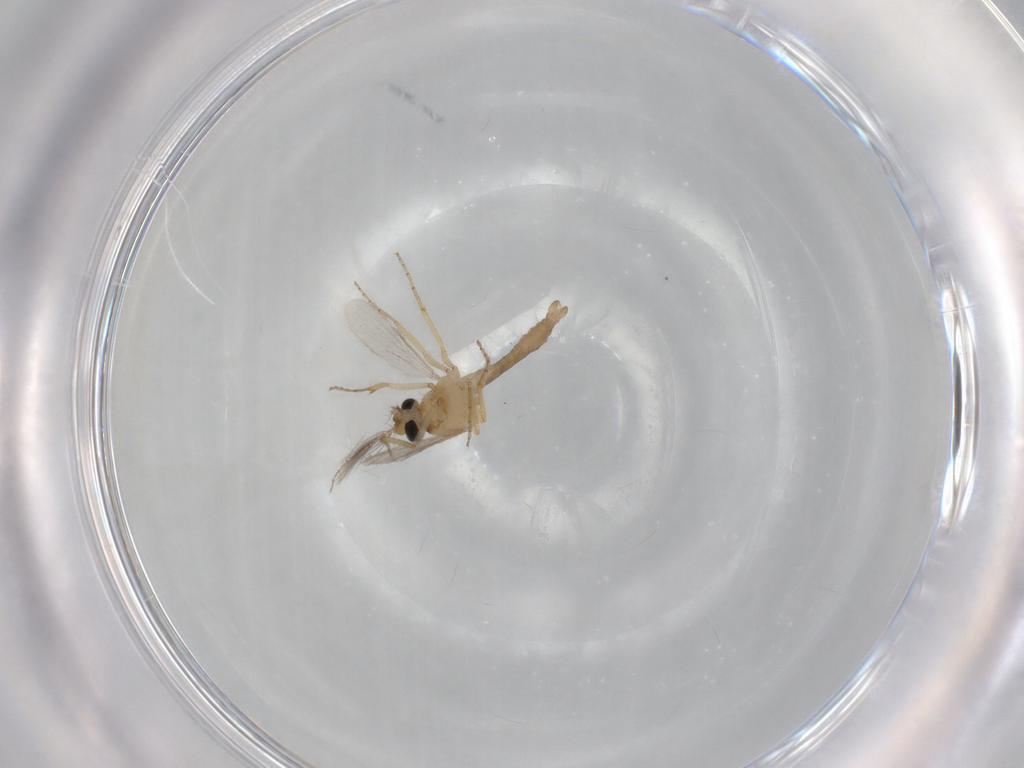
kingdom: Animalia
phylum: Arthropoda
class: Insecta
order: Diptera
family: Ceratopogonidae
